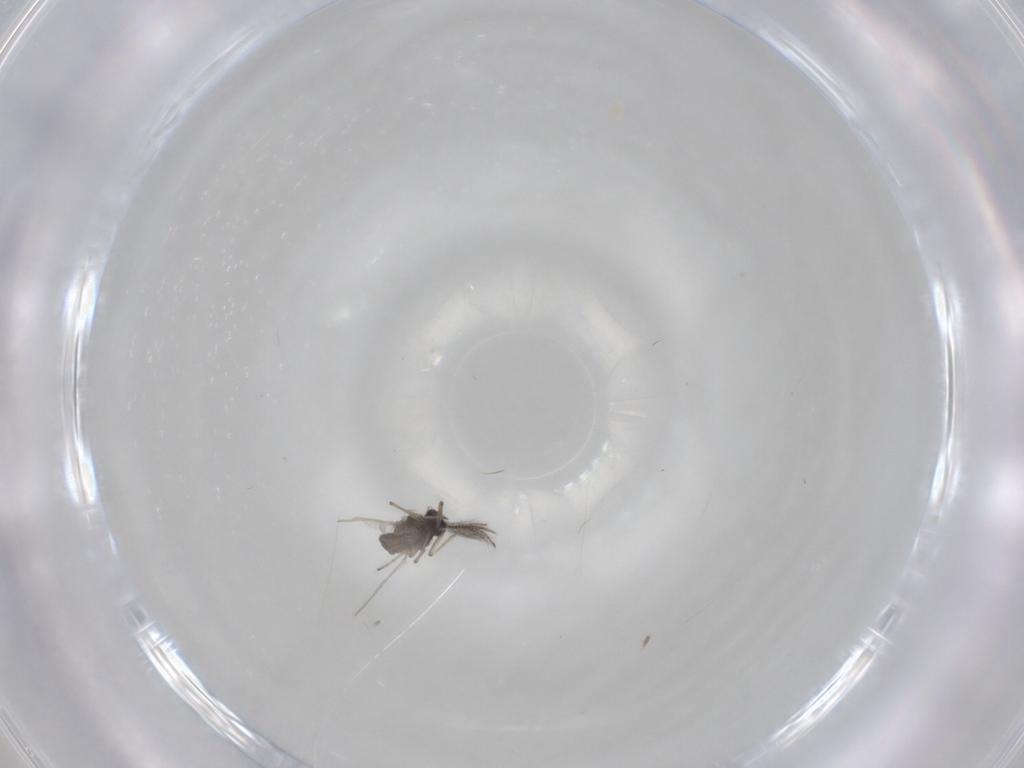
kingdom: Animalia
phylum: Arthropoda
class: Insecta
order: Diptera
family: Ceratopogonidae
